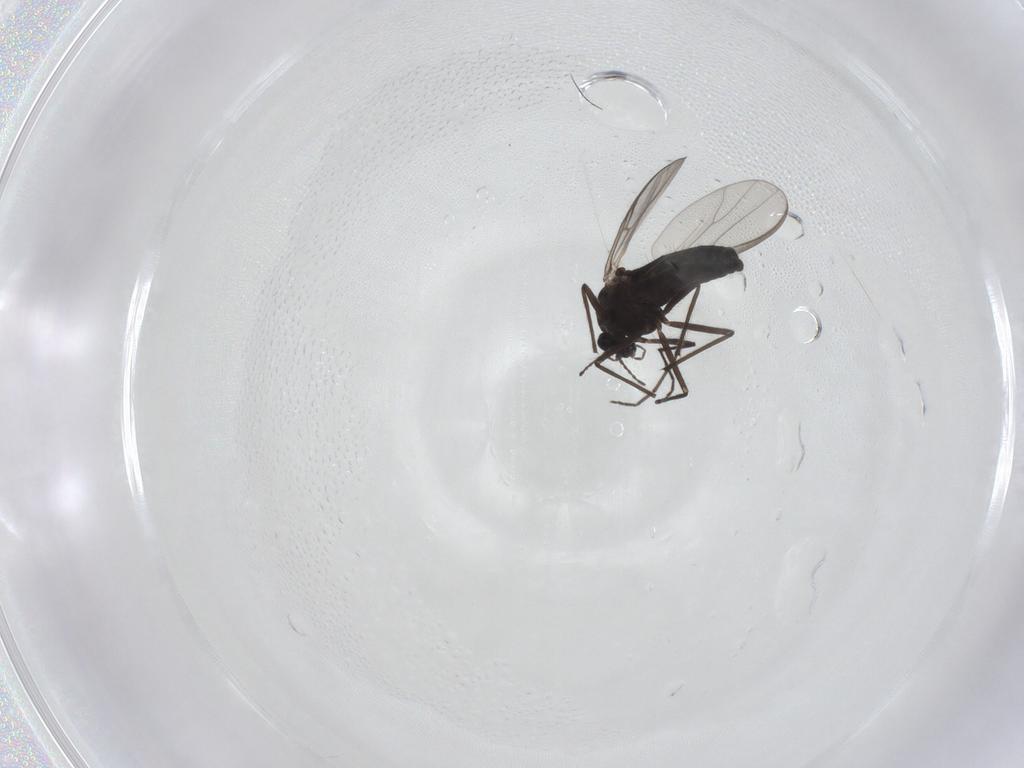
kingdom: Animalia
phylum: Arthropoda
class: Insecta
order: Diptera
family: Chironomidae
